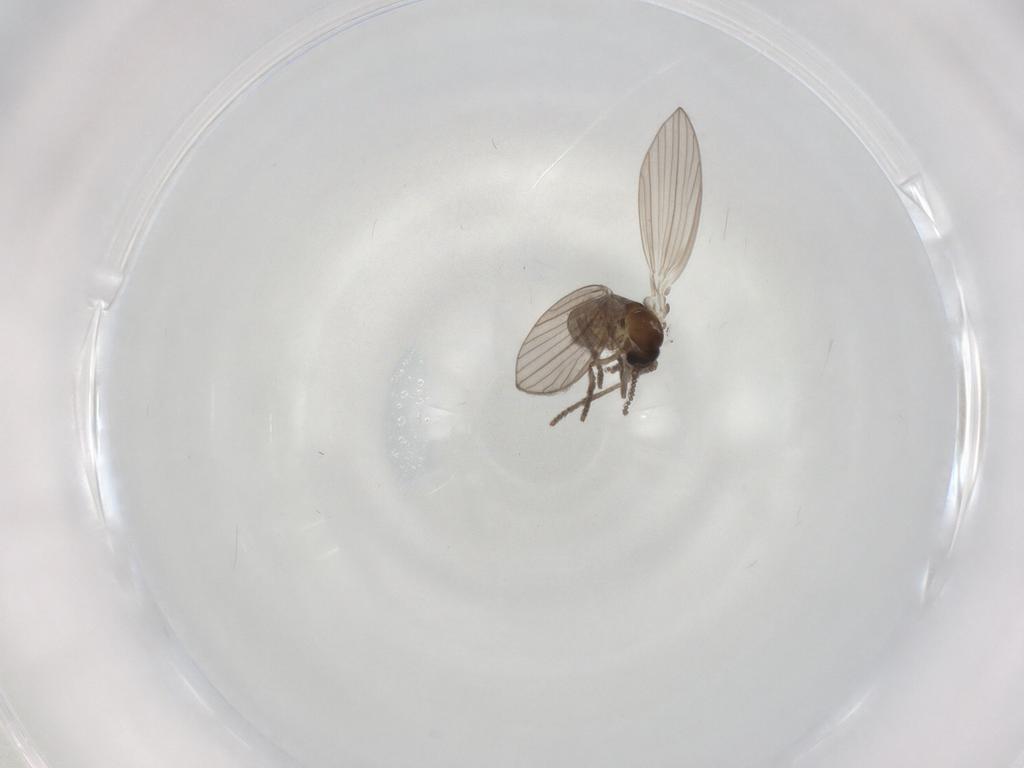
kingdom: Animalia
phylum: Arthropoda
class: Insecta
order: Diptera
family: Psychodidae
